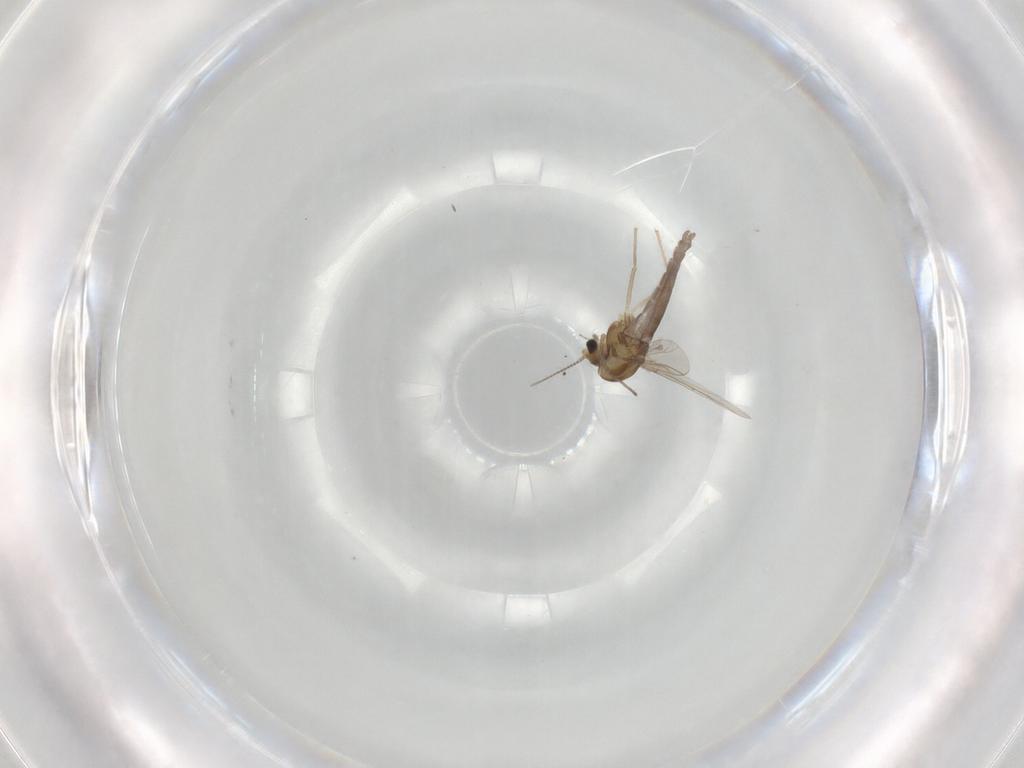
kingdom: Animalia
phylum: Arthropoda
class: Insecta
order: Diptera
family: Chironomidae
